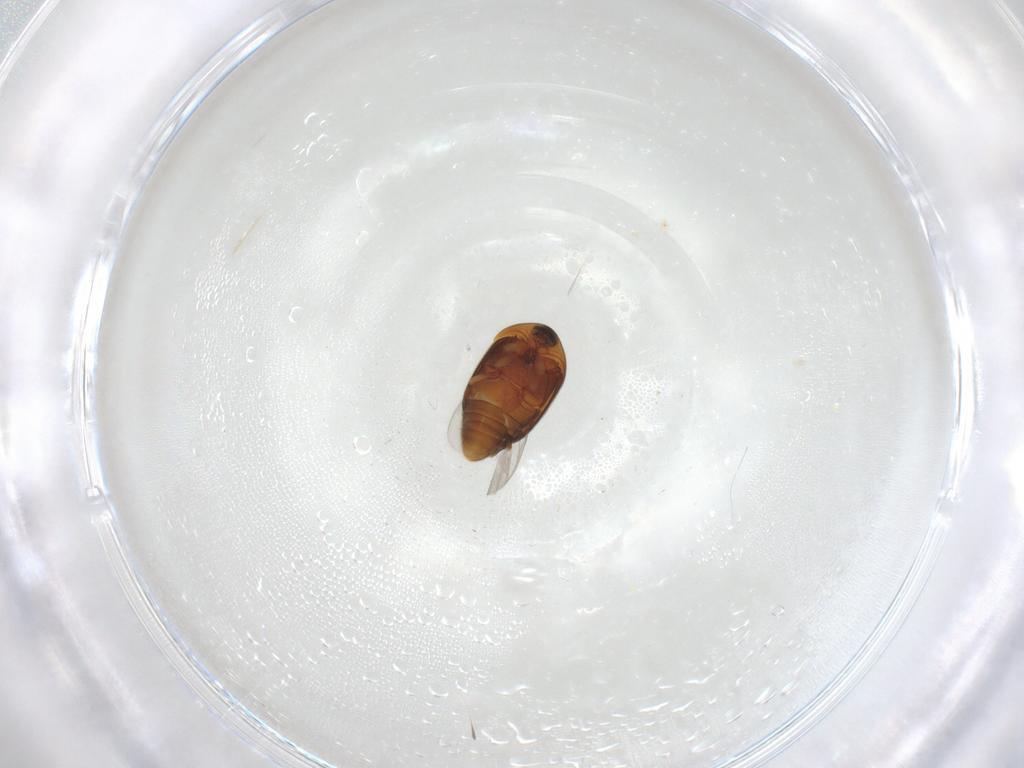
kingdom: Animalia
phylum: Arthropoda
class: Insecta
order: Coleoptera
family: Corylophidae
